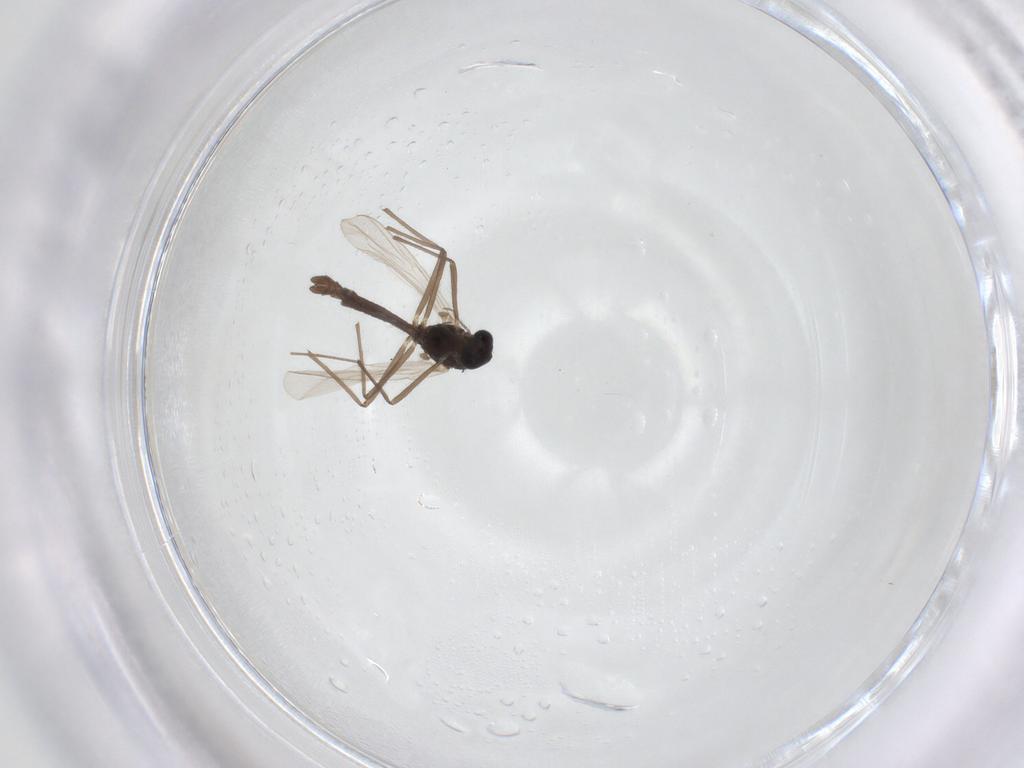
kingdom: Animalia
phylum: Arthropoda
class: Insecta
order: Diptera
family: Chironomidae
